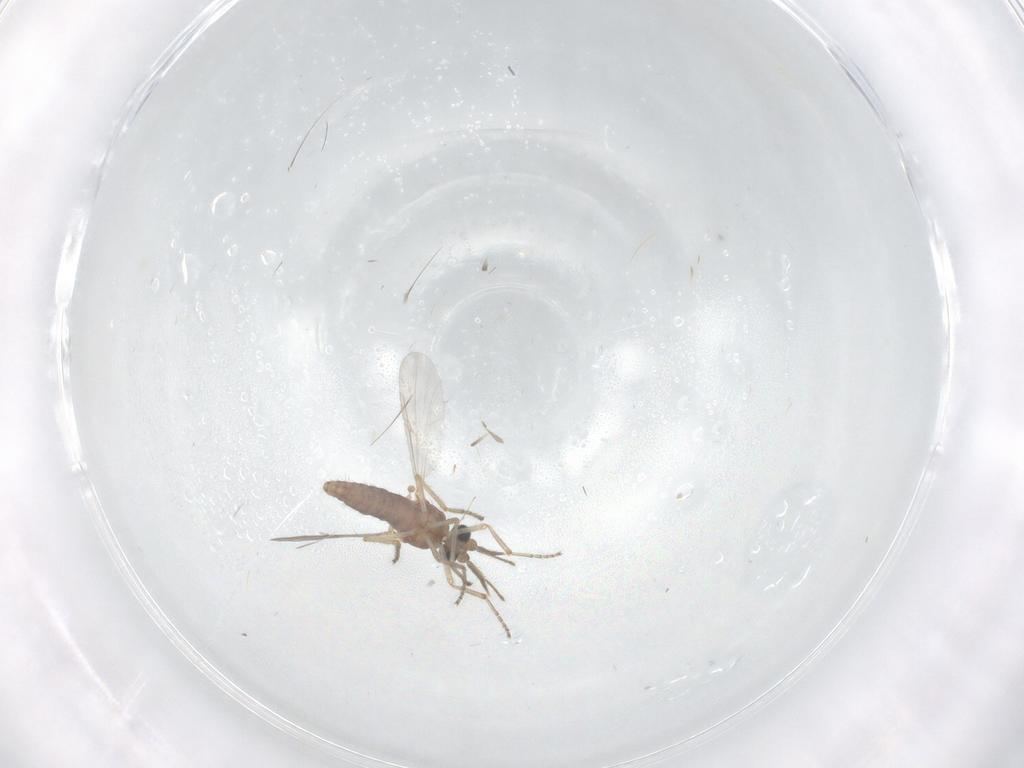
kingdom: Animalia
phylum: Arthropoda
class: Insecta
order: Diptera
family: Ceratopogonidae
